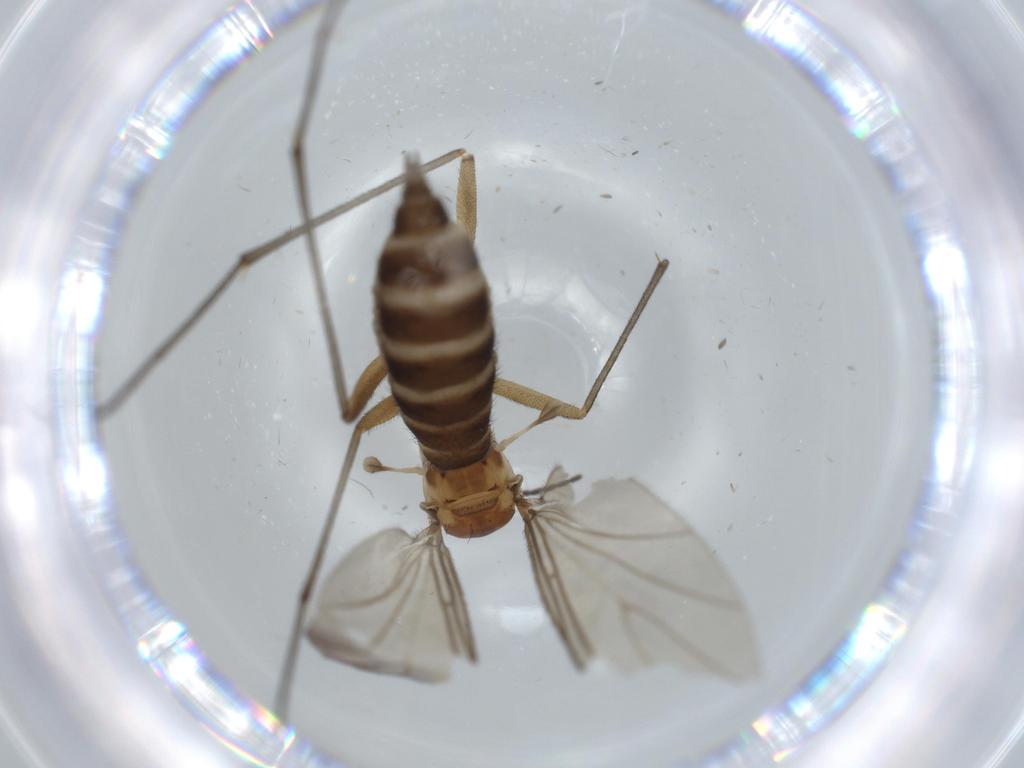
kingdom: Animalia
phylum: Arthropoda
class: Insecta
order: Diptera
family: Sciaridae
